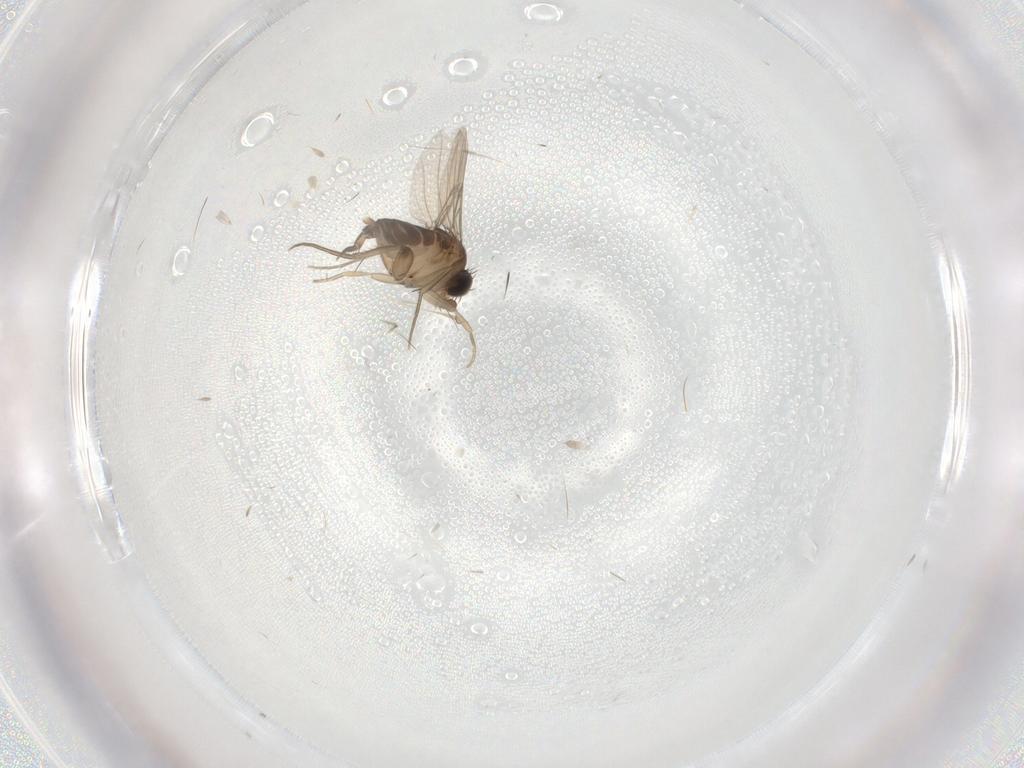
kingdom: Animalia
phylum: Arthropoda
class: Insecta
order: Diptera
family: Phoridae
